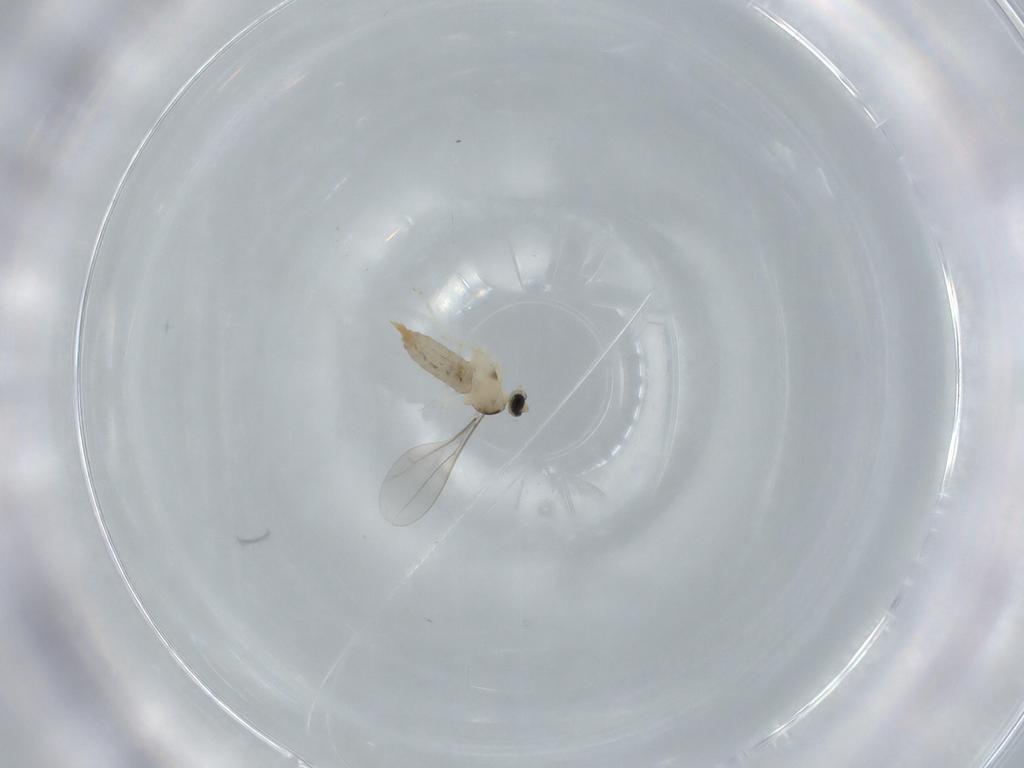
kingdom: Animalia
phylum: Arthropoda
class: Insecta
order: Diptera
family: Milichiidae
